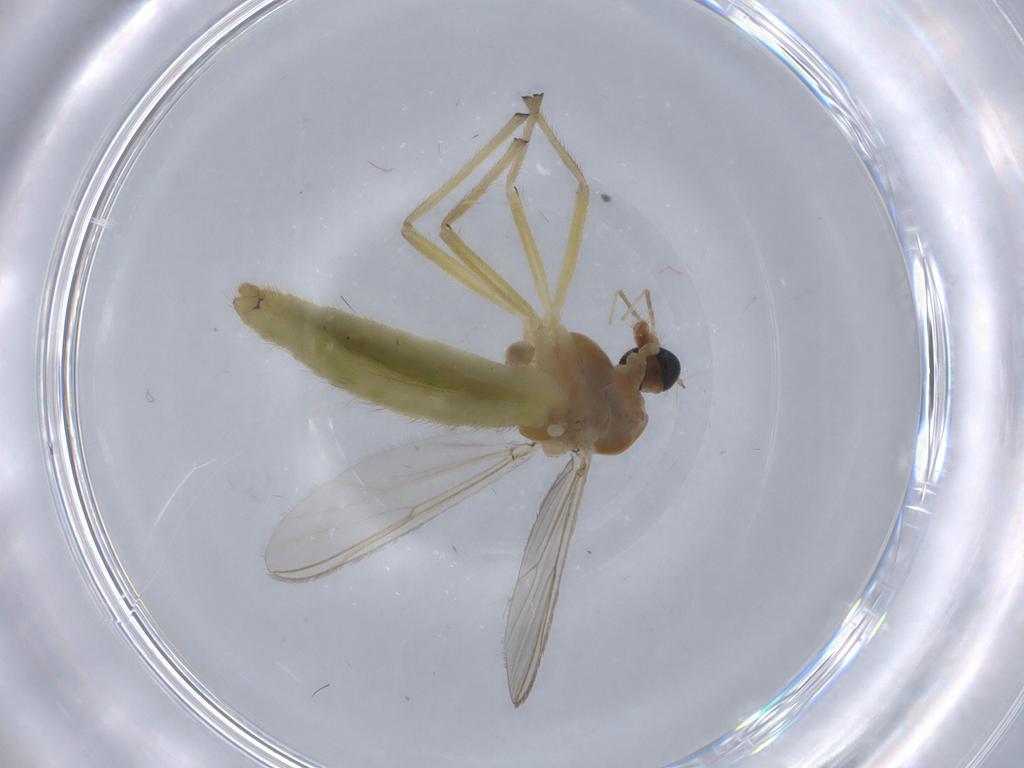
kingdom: Animalia
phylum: Arthropoda
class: Insecta
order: Diptera
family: Chironomidae
